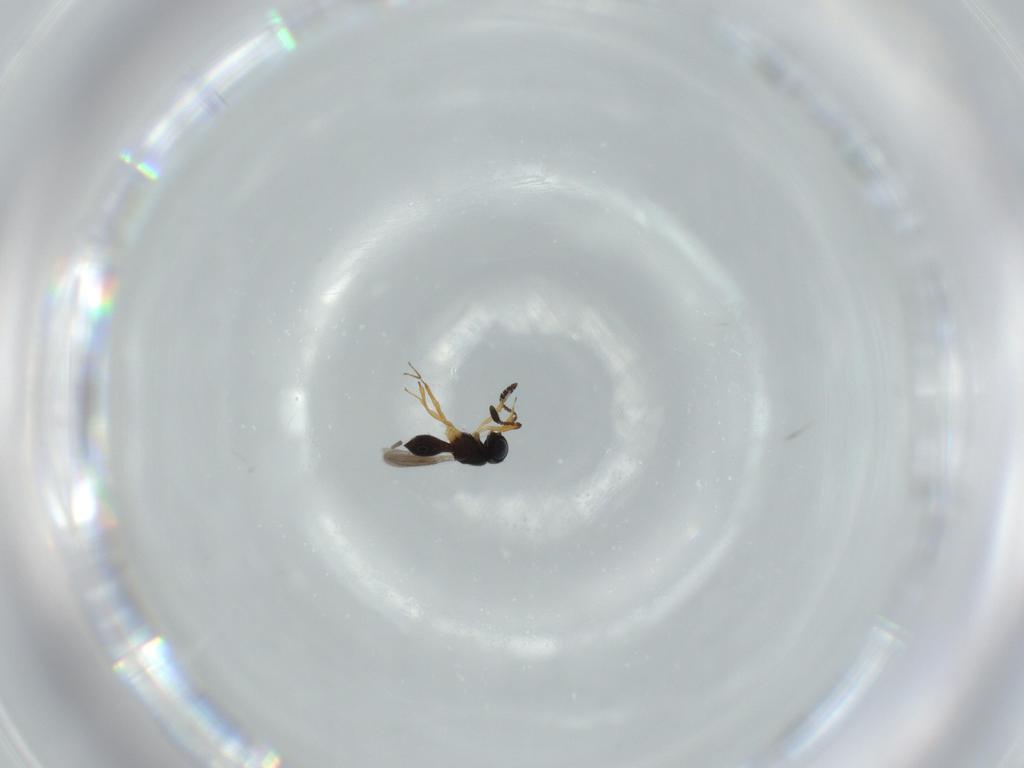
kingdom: Animalia
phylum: Arthropoda
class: Insecta
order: Hymenoptera
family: Scelionidae
